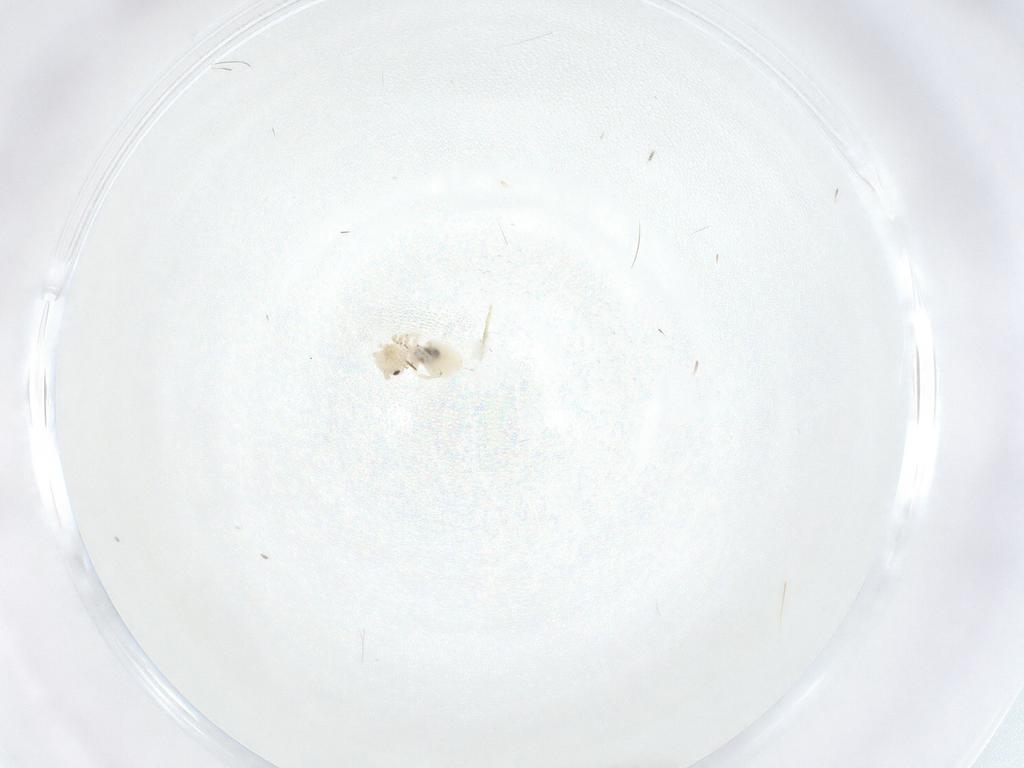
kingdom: Animalia
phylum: Arthropoda
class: Insecta
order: Psocodea
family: Amphipsocidae
